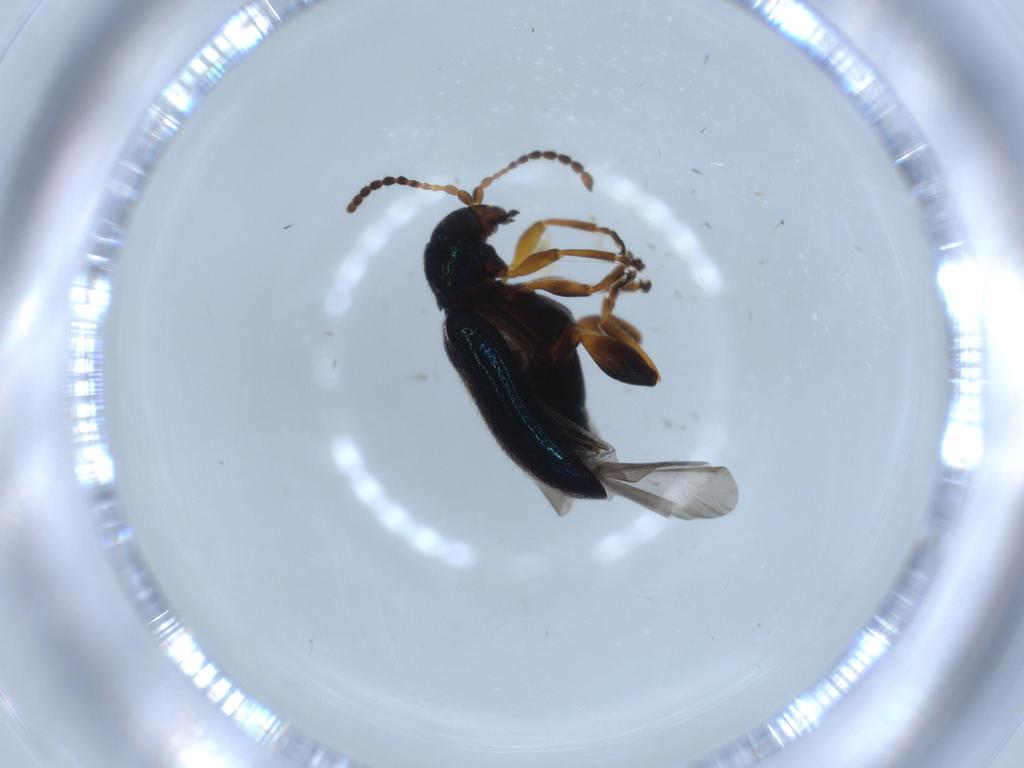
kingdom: Animalia
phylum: Arthropoda
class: Insecta
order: Coleoptera
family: Chrysomelidae
